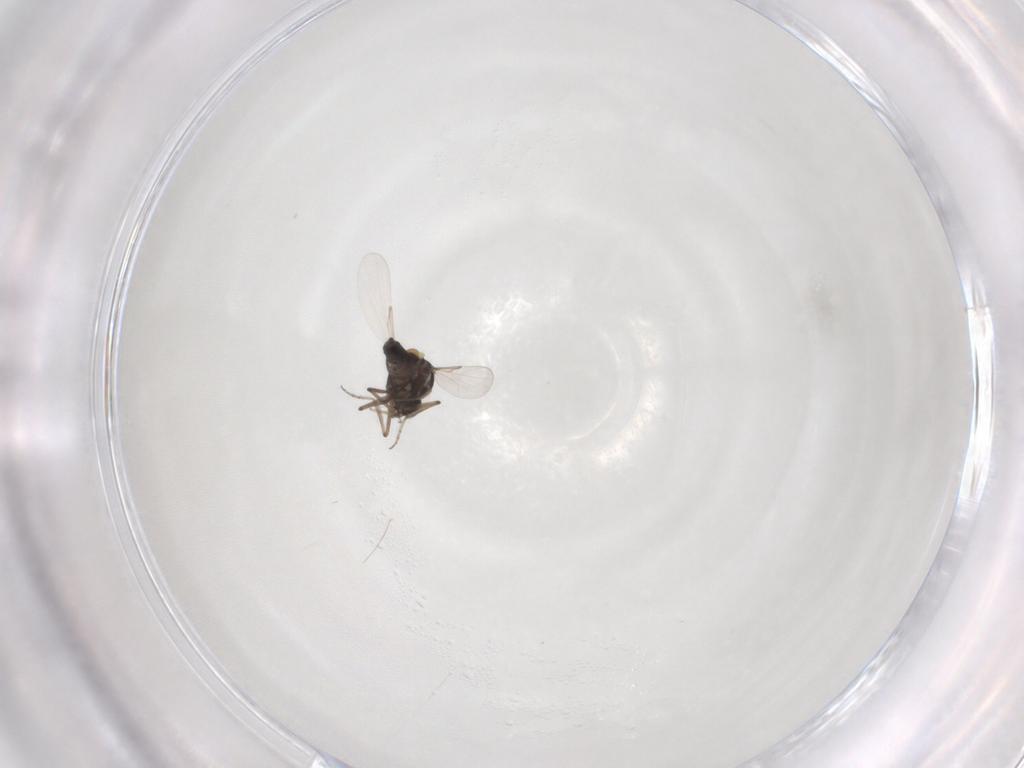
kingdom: Animalia
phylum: Arthropoda
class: Insecta
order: Diptera
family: Ceratopogonidae
